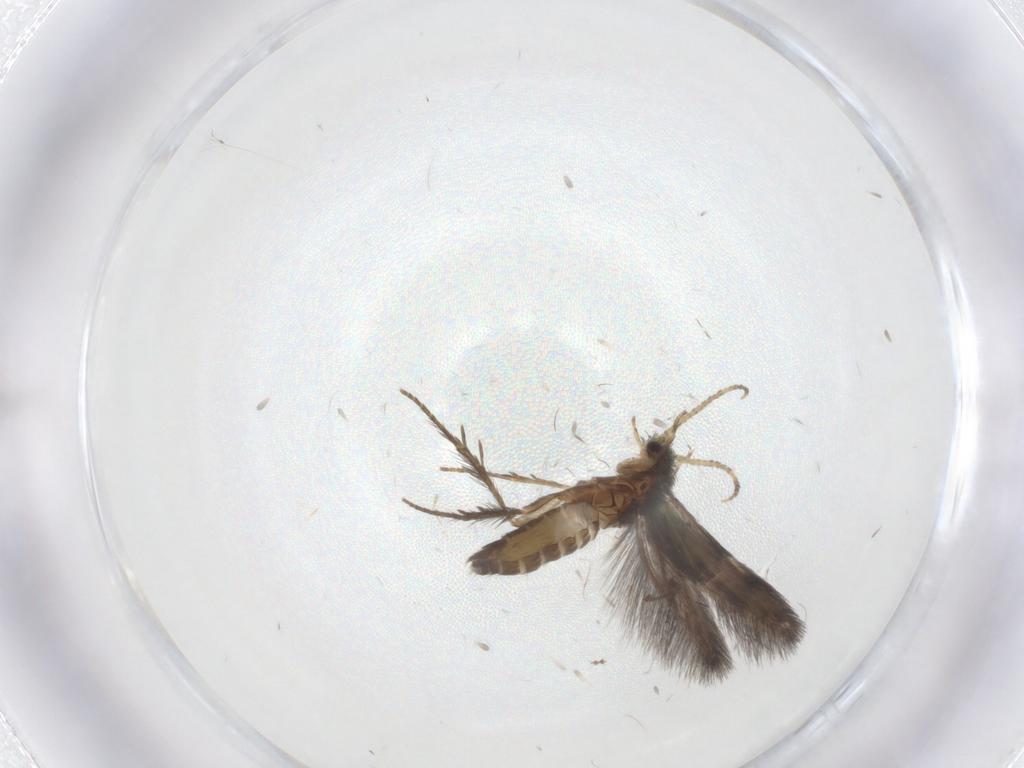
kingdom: Animalia
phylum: Arthropoda
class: Insecta
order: Trichoptera
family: Hydroptilidae
